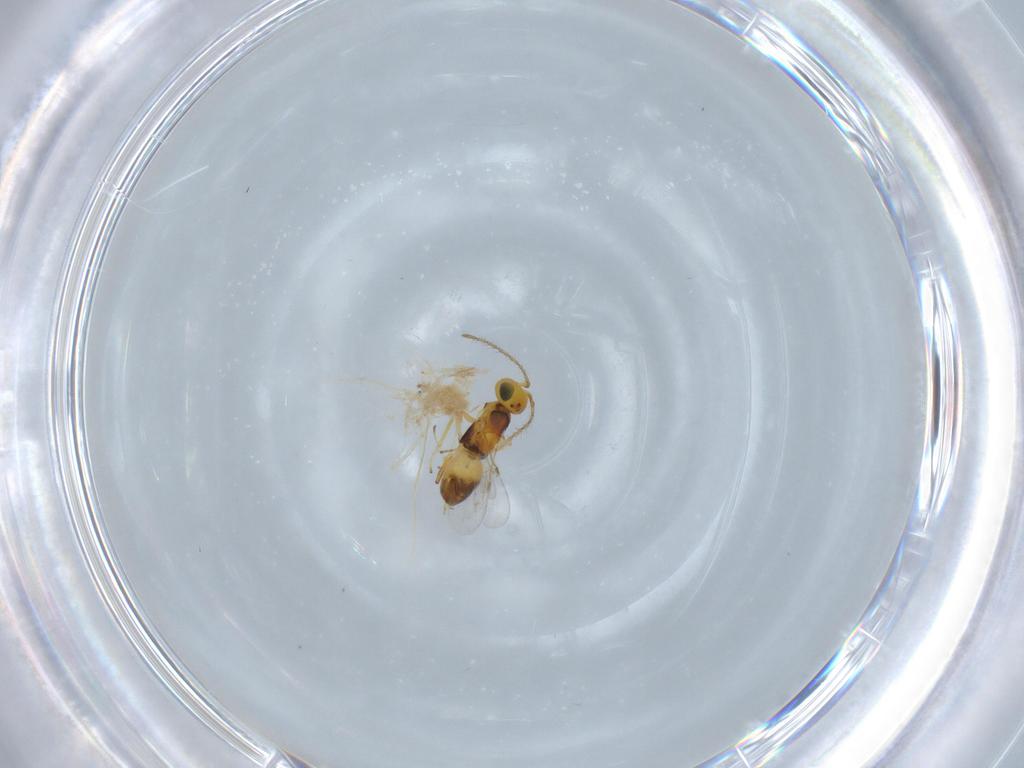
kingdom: Animalia
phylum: Arthropoda
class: Insecta
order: Hymenoptera
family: Encyrtidae
